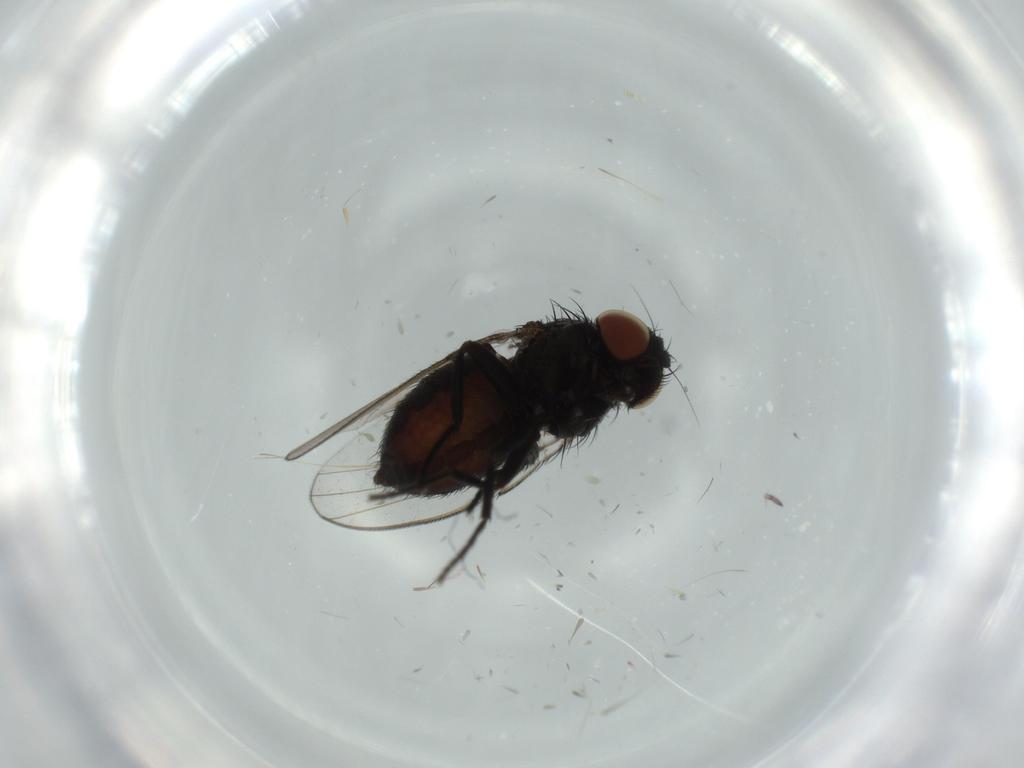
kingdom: Animalia
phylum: Arthropoda
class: Insecta
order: Diptera
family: Milichiidae
